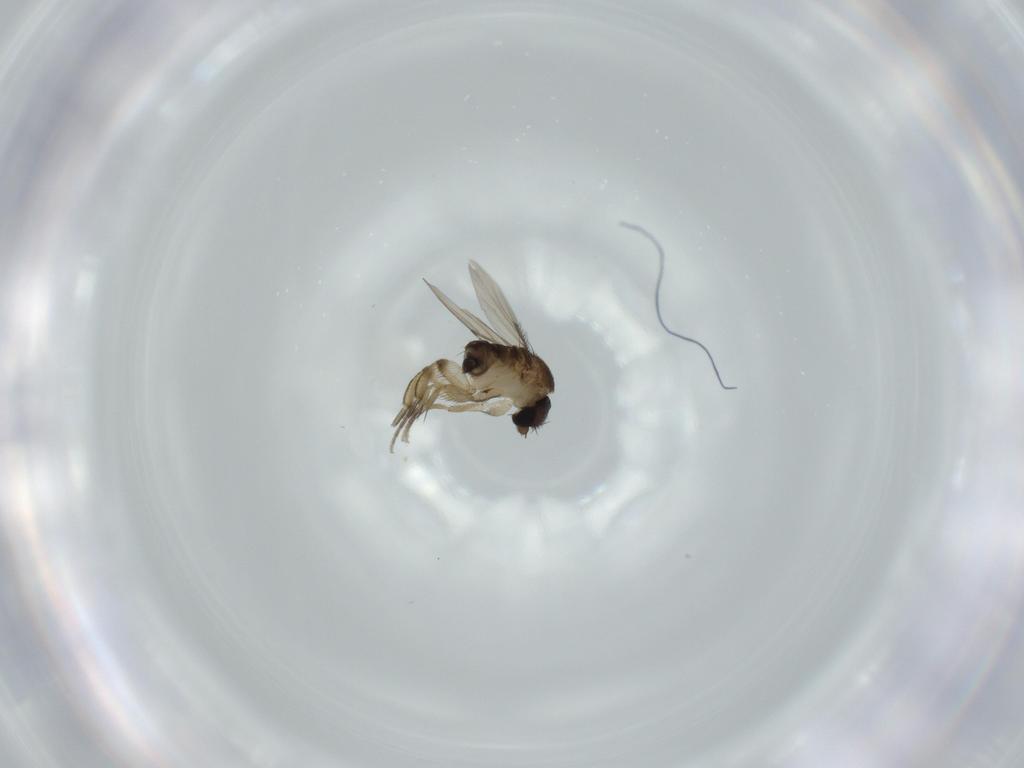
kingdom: Animalia
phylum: Arthropoda
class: Insecta
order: Diptera
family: Phoridae
